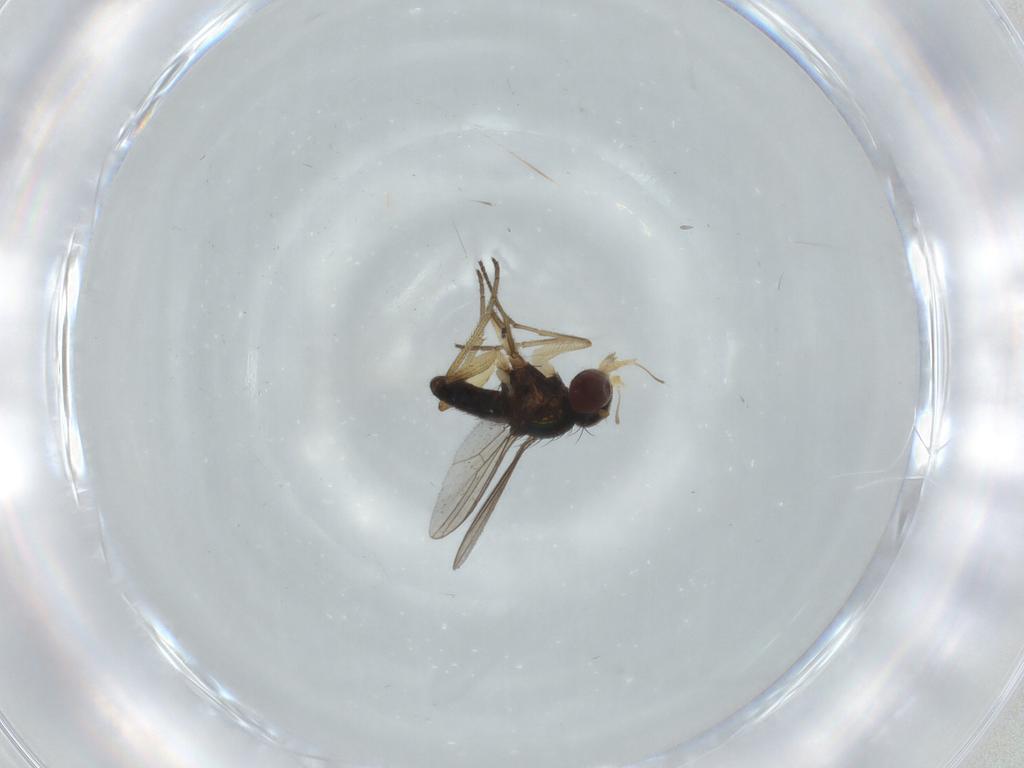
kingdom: Animalia
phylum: Arthropoda
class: Insecta
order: Diptera
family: Dolichopodidae
